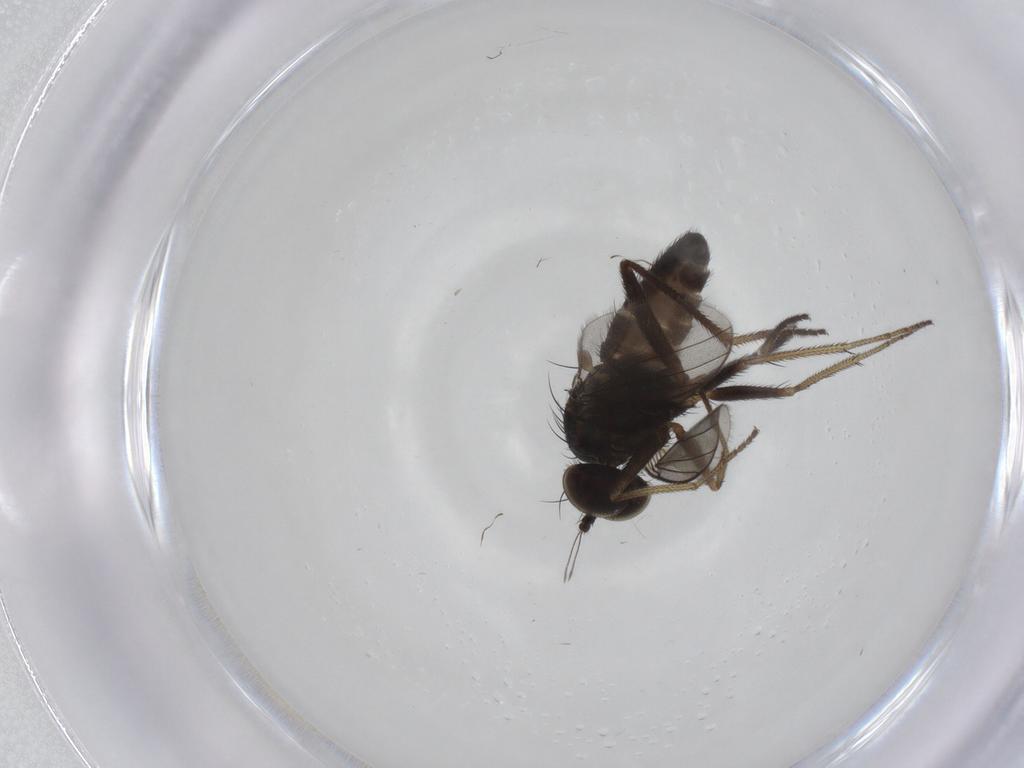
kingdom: Animalia
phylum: Arthropoda
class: Insecta
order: Diptera
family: Dolichopodidae
